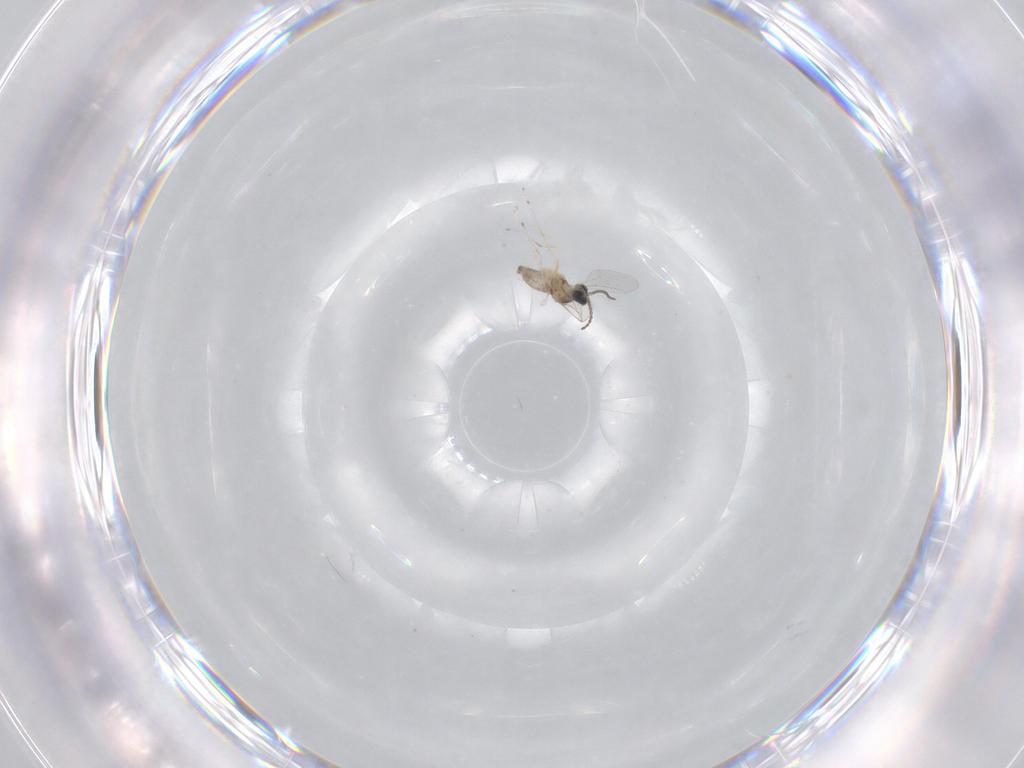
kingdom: Animalia
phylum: Arthropoda
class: Insecta
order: Diptera
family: Cecidomyiidae
